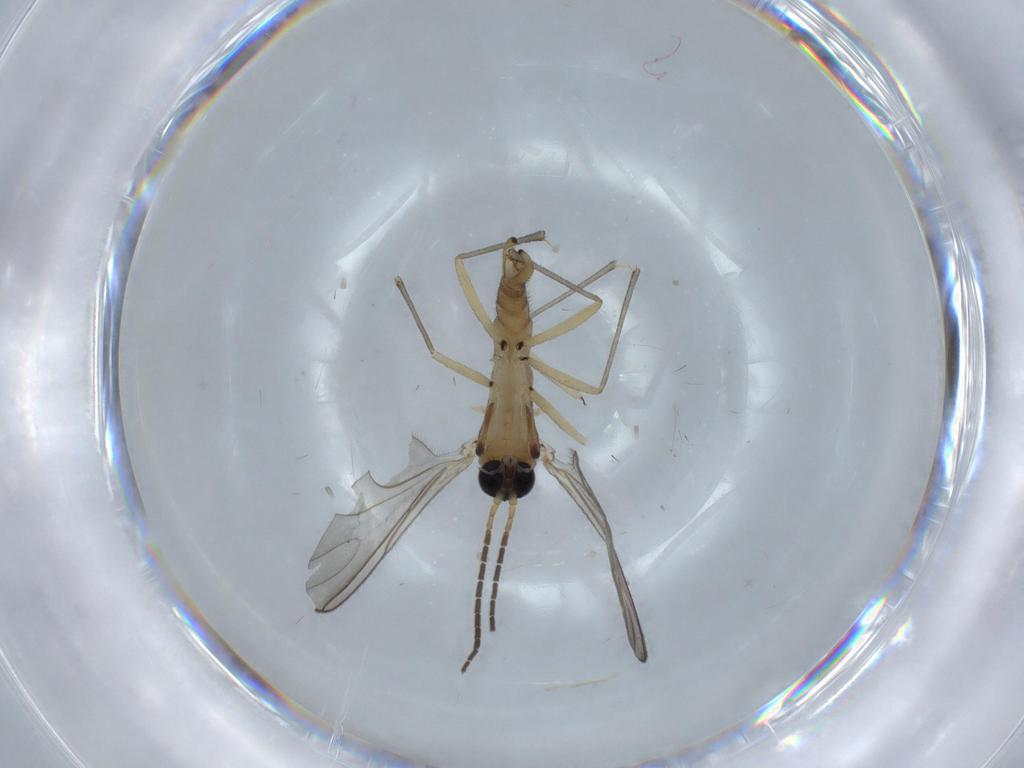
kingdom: Animalia
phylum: Arthropoda
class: Insecta
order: Diptera
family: Sciaridae
